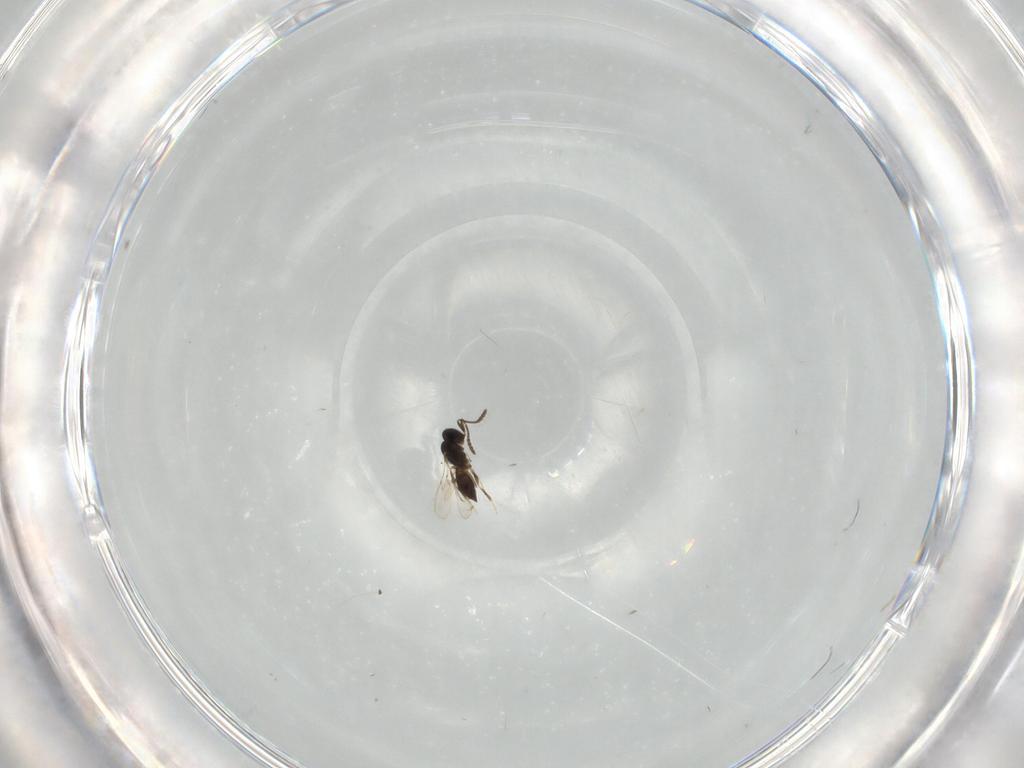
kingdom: Animalia
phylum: Arthropoda
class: Insecta
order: Hymenoptera
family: Scelionidae
